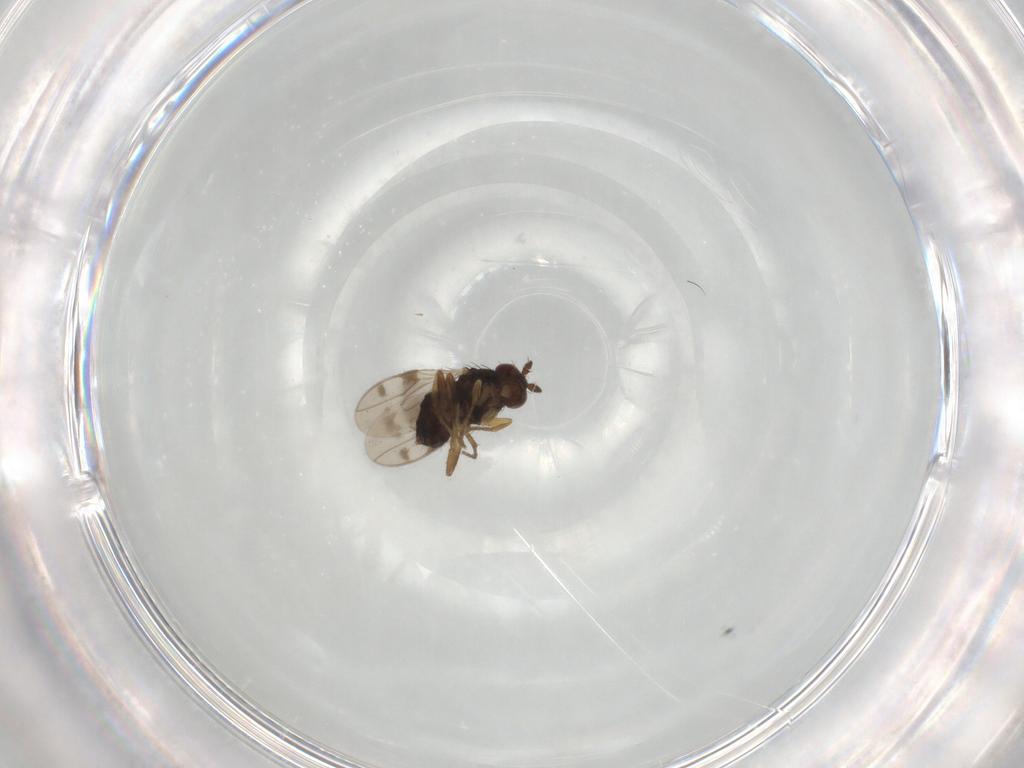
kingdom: Animalia
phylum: Arthropoda
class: Insecta
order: Diptera
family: Sphaeroceridae
